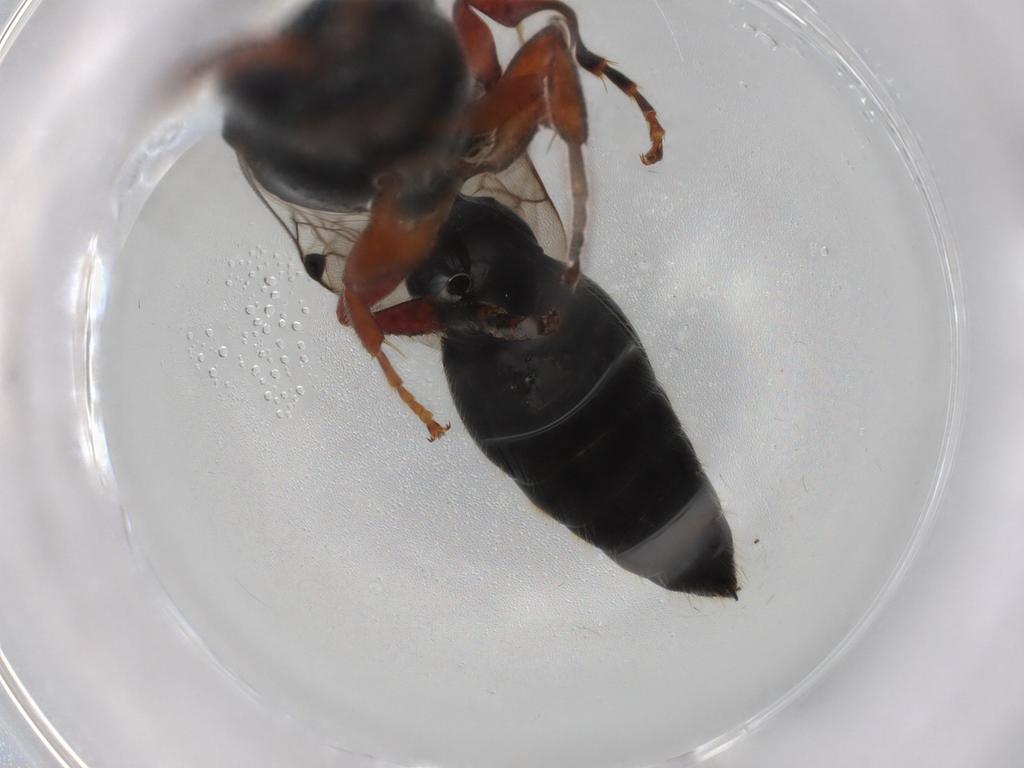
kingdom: Animalia
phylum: Arthropoda
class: Insecta
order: Hymenoptera
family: Tiphiidae
